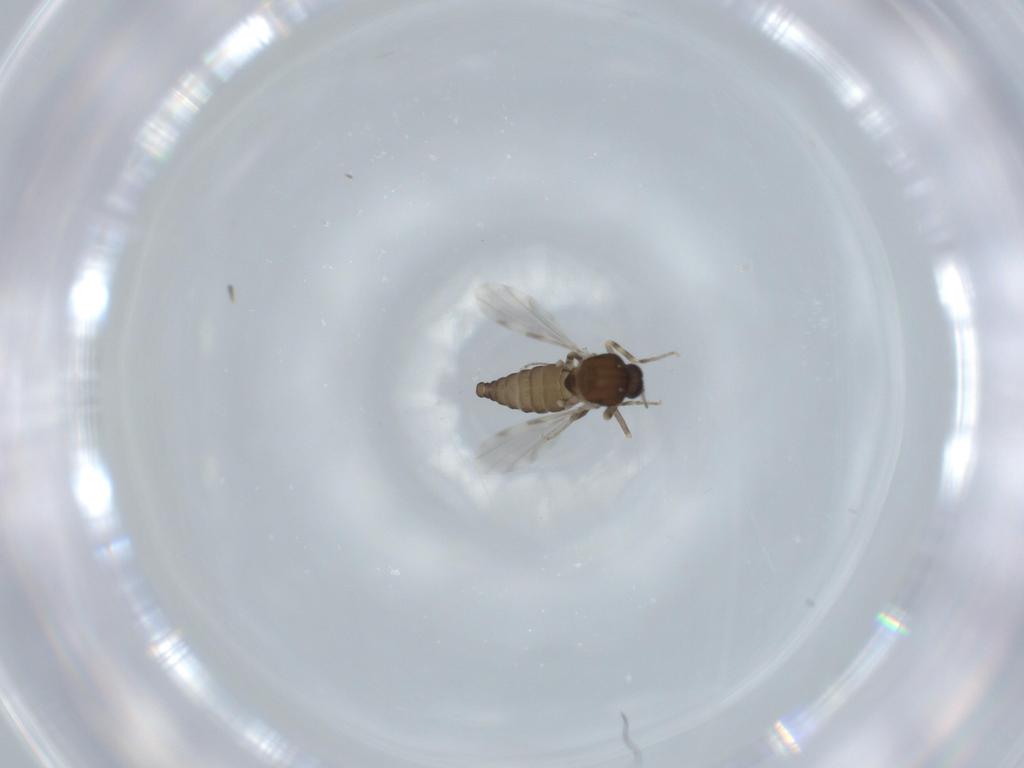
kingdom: Animalia
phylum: Arthropoda
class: Insecta
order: Diptera
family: Ceratopogonidae
